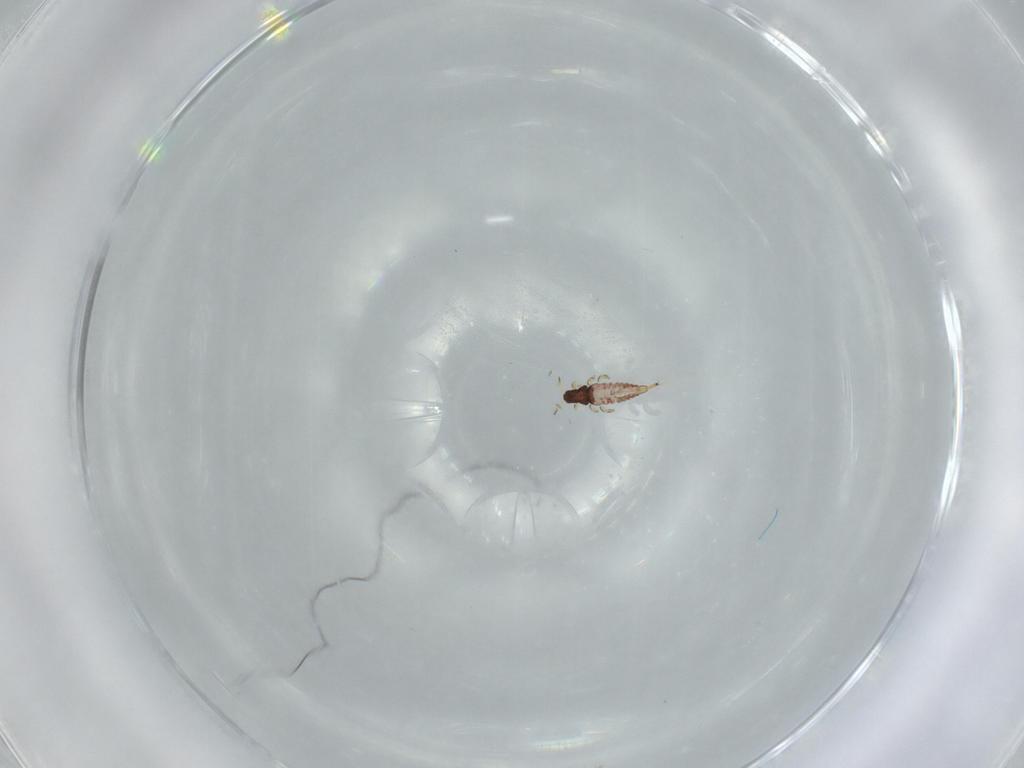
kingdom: Animalia
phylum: Arthropoda
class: Insecta
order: Thysanoptera
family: Phlaeothripidae
